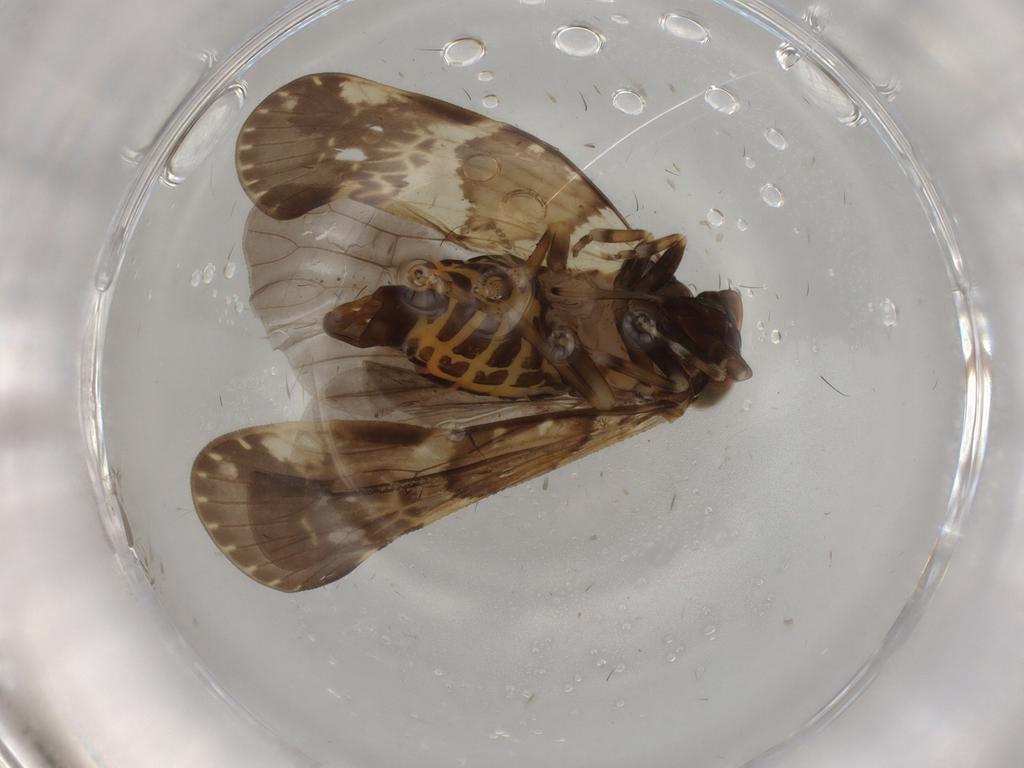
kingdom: Animalia
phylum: Arthropoda
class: Insecta
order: Hemiptera
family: Cixiidae
